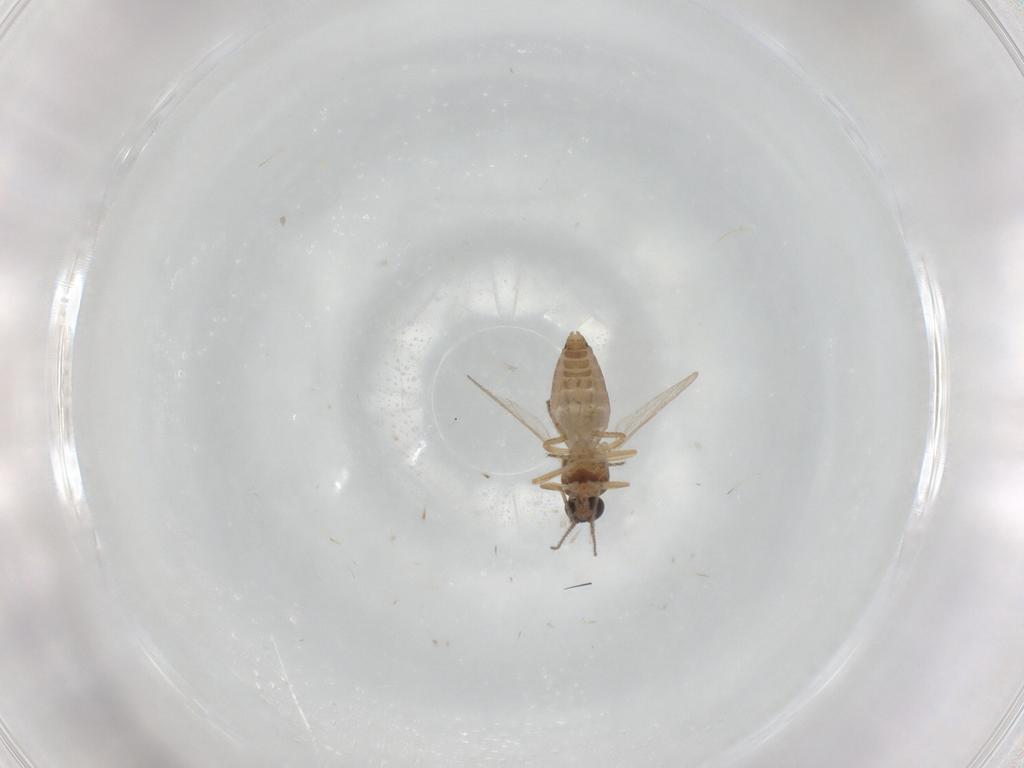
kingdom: Animalia
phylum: Arthropoda
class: Insecta
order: Diptera
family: Ceratopogonidae
